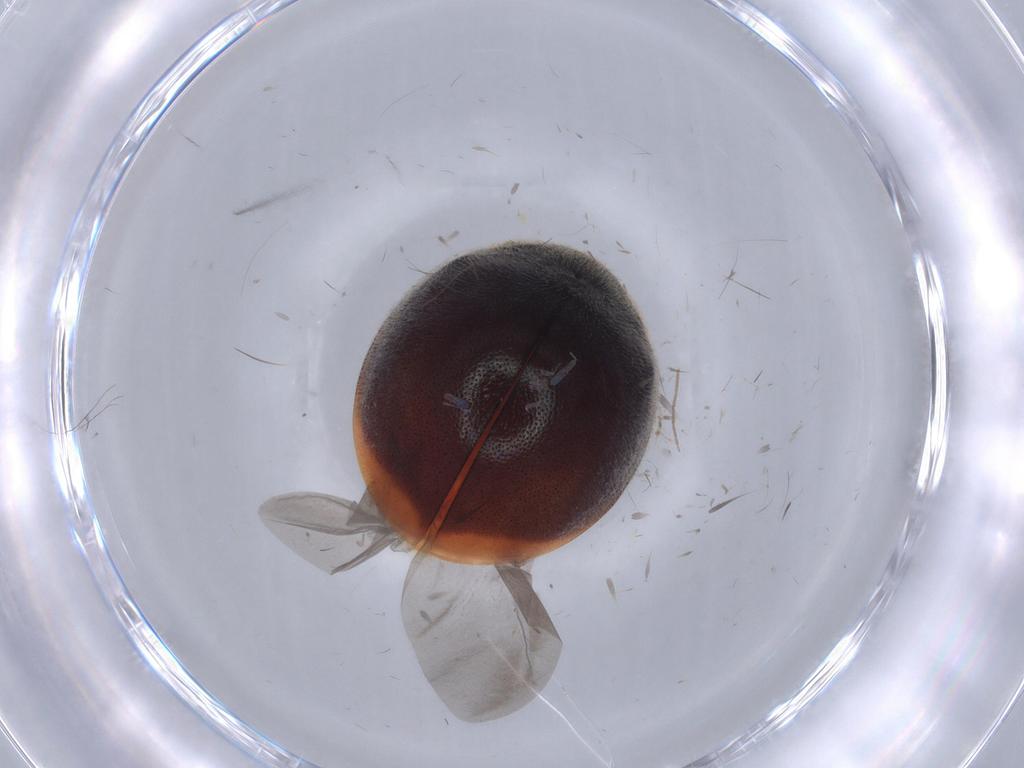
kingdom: Animalia
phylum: Arthropoda
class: Insecta
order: Coleoptera
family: Coccinellidae
